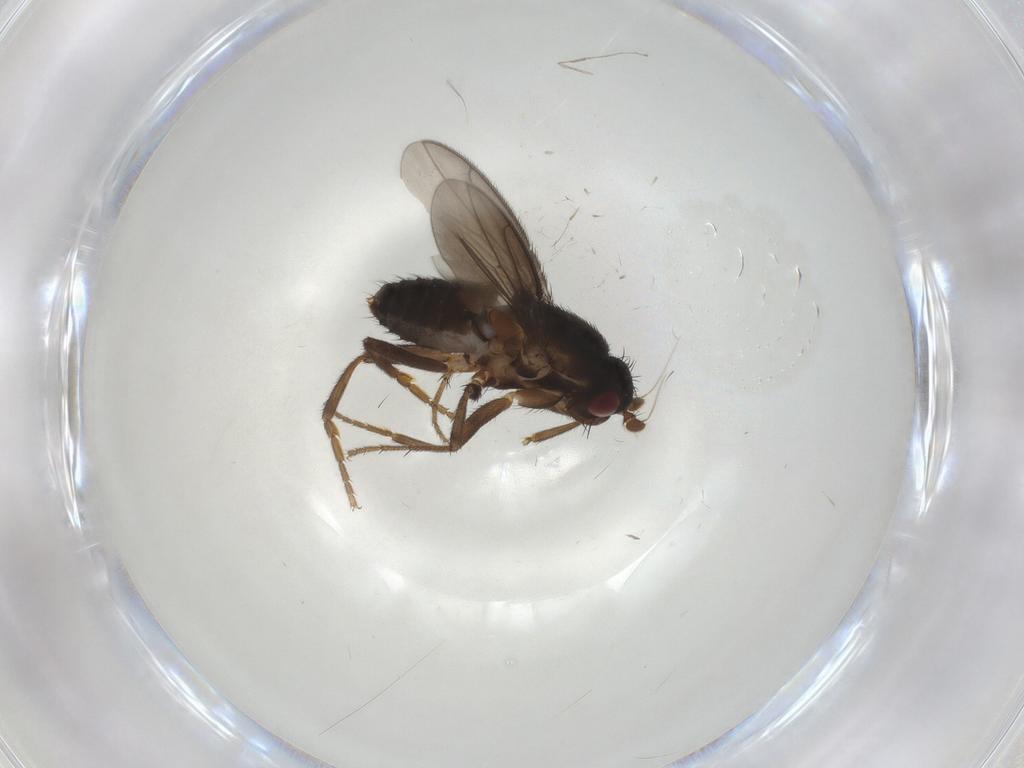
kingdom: Animalia
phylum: Arthropoda
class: Insecta
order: Diptera
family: Sphaeroceridae
